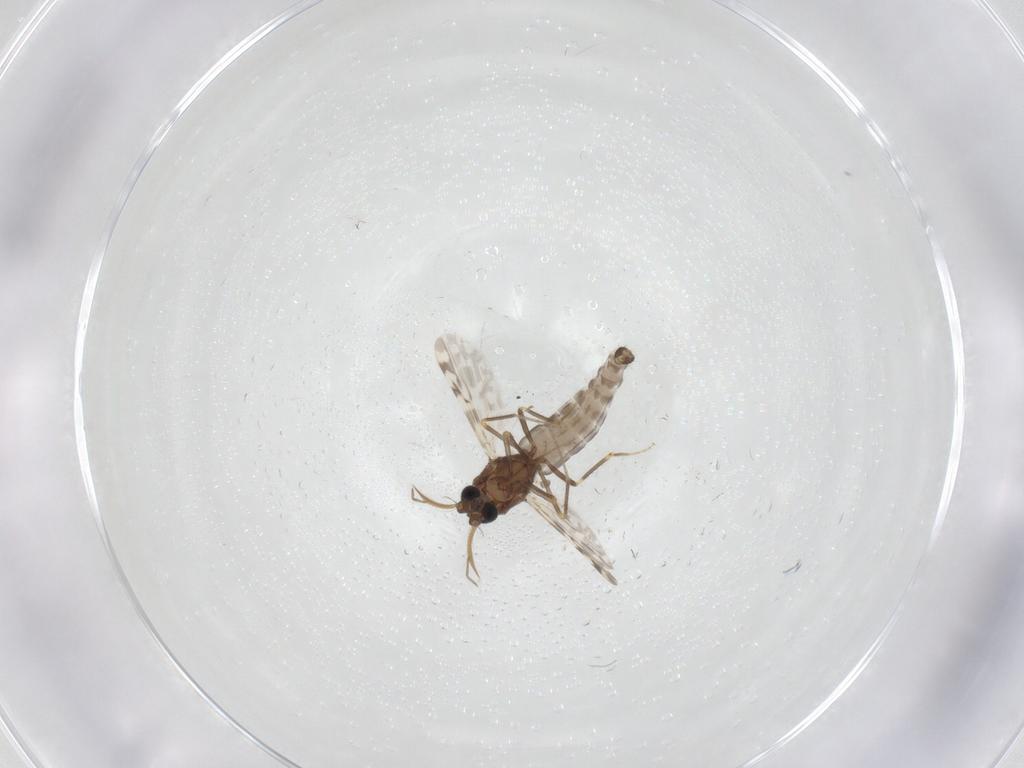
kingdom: Animalia
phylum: Arthropoda
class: Insecta
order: Diptera
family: Ceratopogonidae
